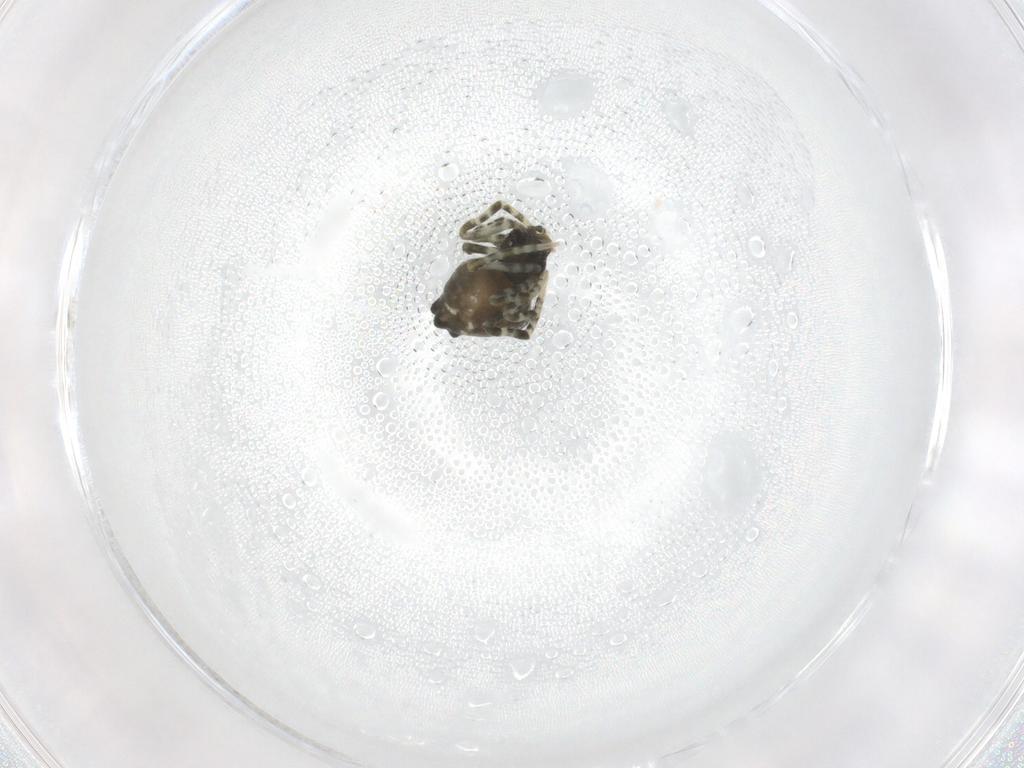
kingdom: Animalia
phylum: Arthropoda
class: Arachnida
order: Araneae
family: Theridiidae
